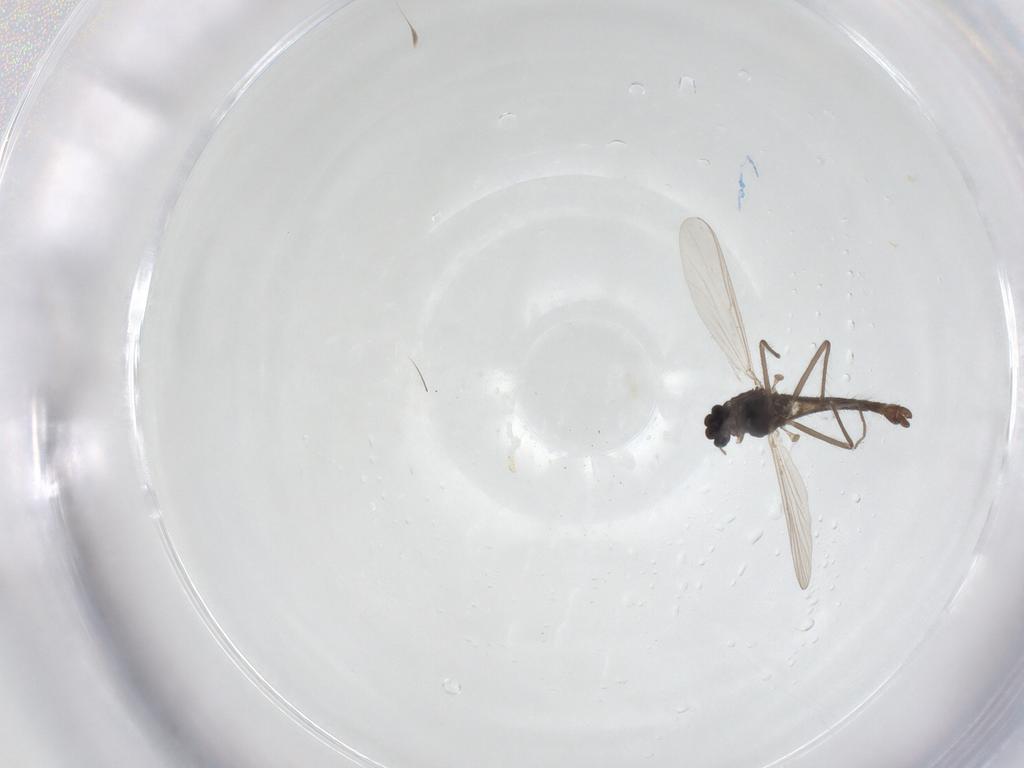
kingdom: Animalia
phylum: Arthropoda
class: Insecta
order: Diptera
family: Chironomidae
